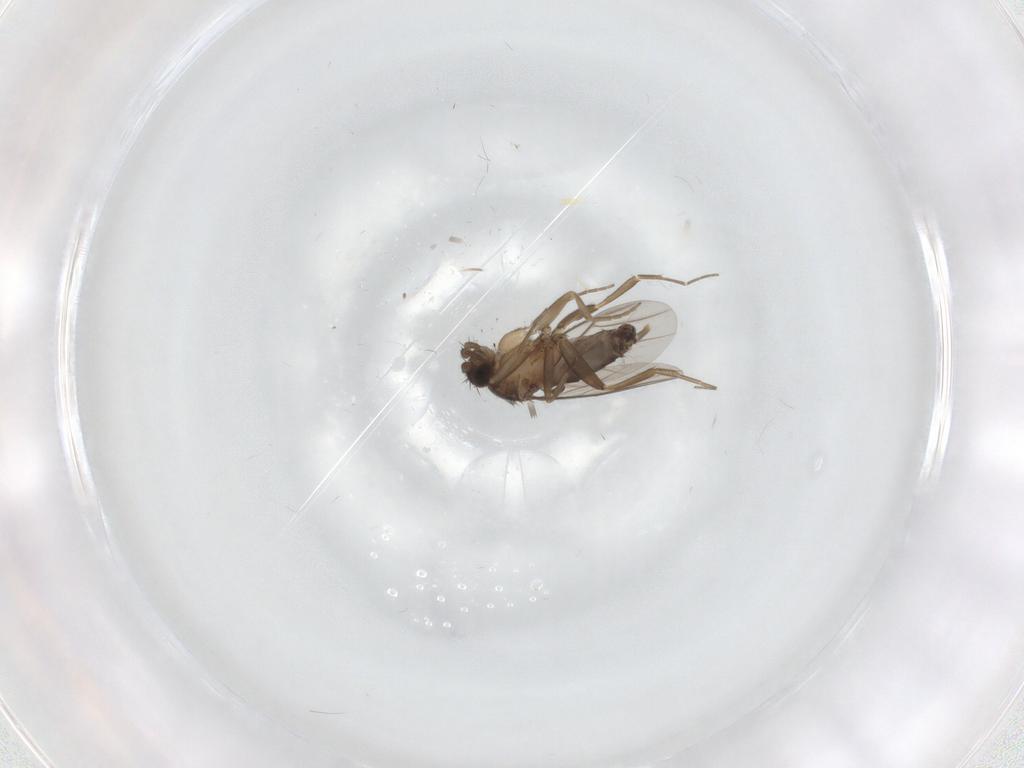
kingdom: Animalia
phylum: Arthropoda
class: Insecta
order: Diptera
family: Phoridae
